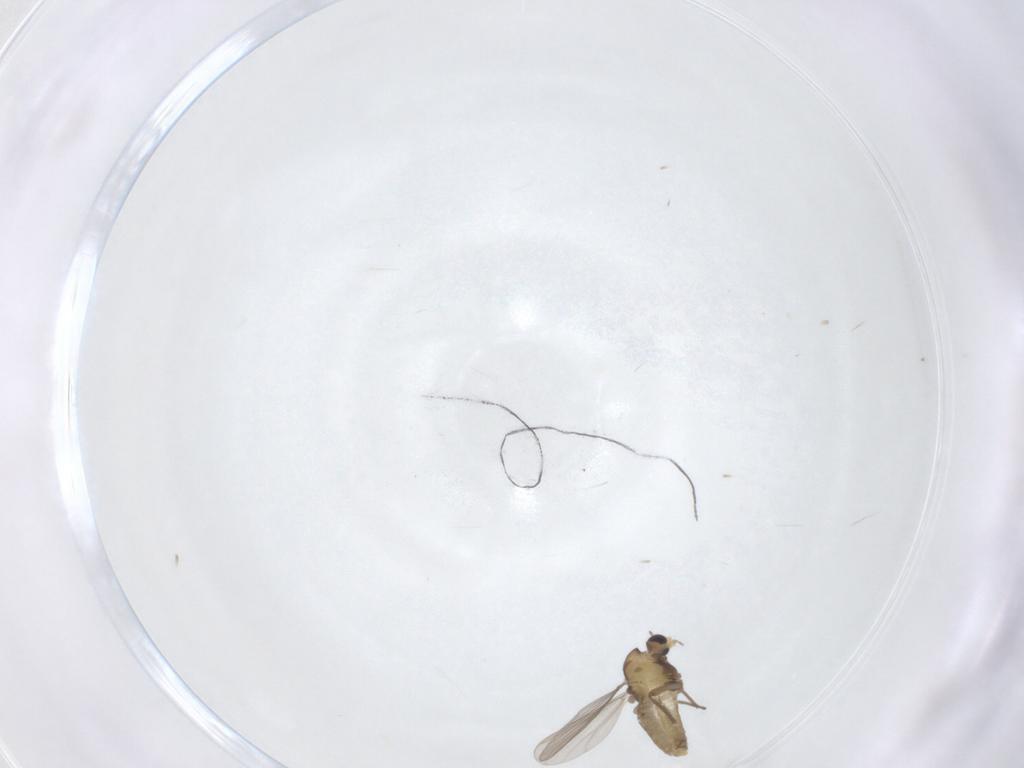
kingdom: Animalia
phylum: Arthropoda
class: Insecta
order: Diptera
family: Chironomidae
